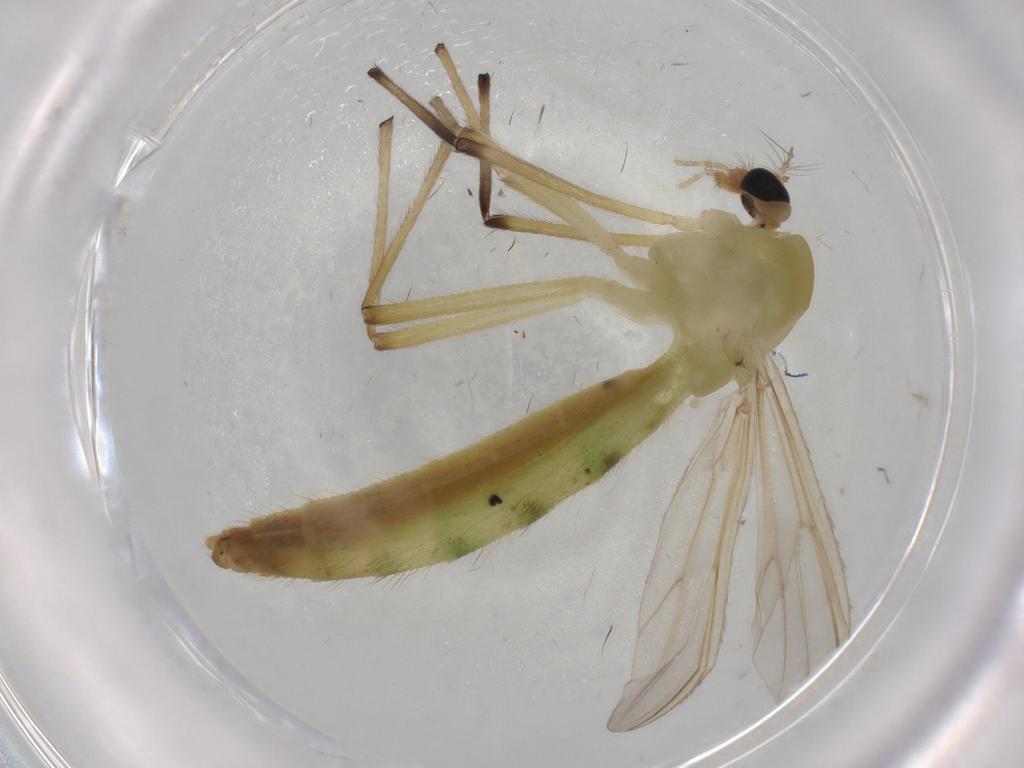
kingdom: Animalia
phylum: Arthropoda
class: Insecta
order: Diptera
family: Chironomidae
